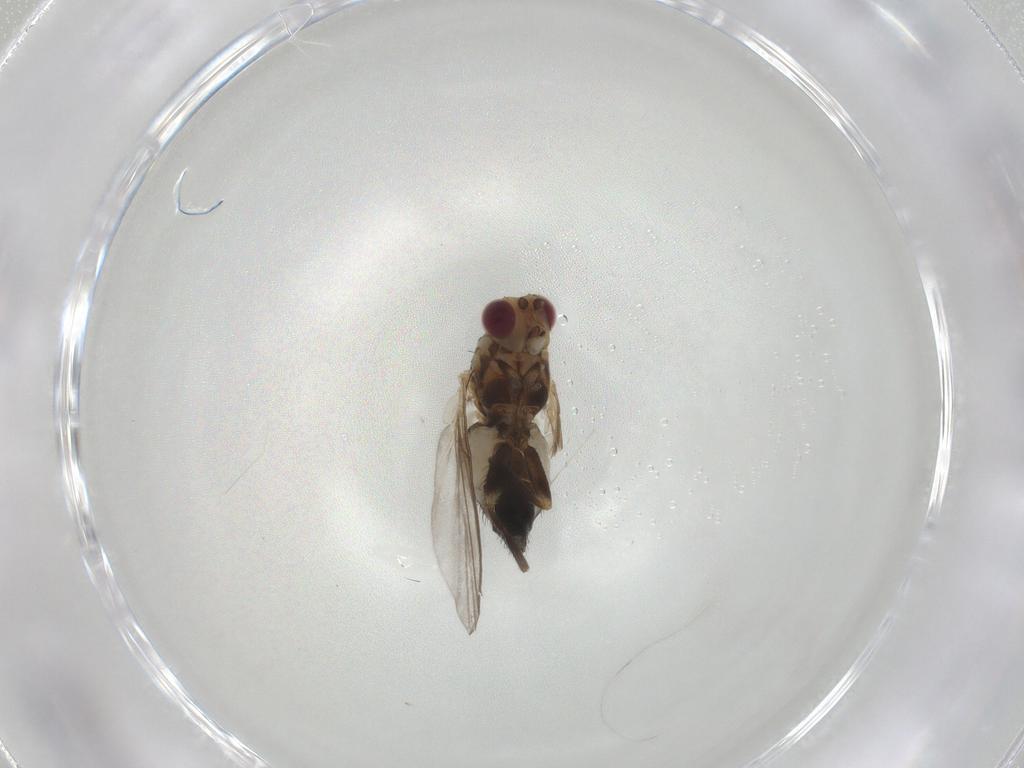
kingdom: Animalia
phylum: Arthropoda
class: Insecta
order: Diptera
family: Agromyzidae
